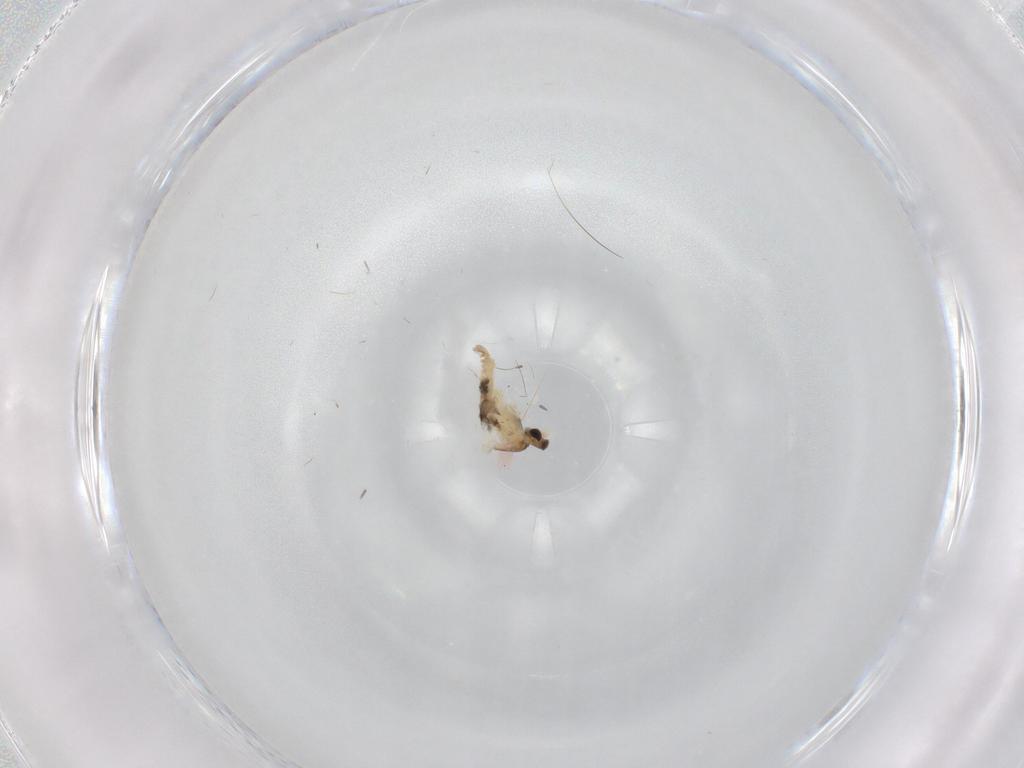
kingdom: Animalia
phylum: Arthropoda
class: Insecta
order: Diptera
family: Cecidomyiidae
